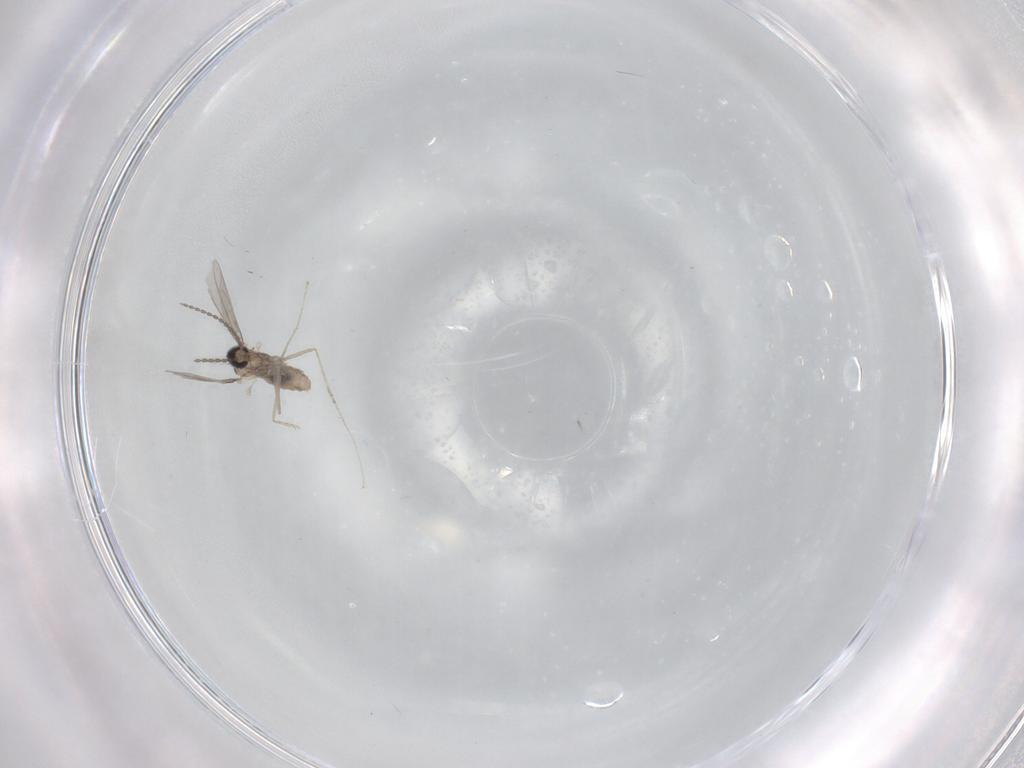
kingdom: Animalia
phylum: Arthropoda
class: Insecta
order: Diptera
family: Cecidomyiidae
